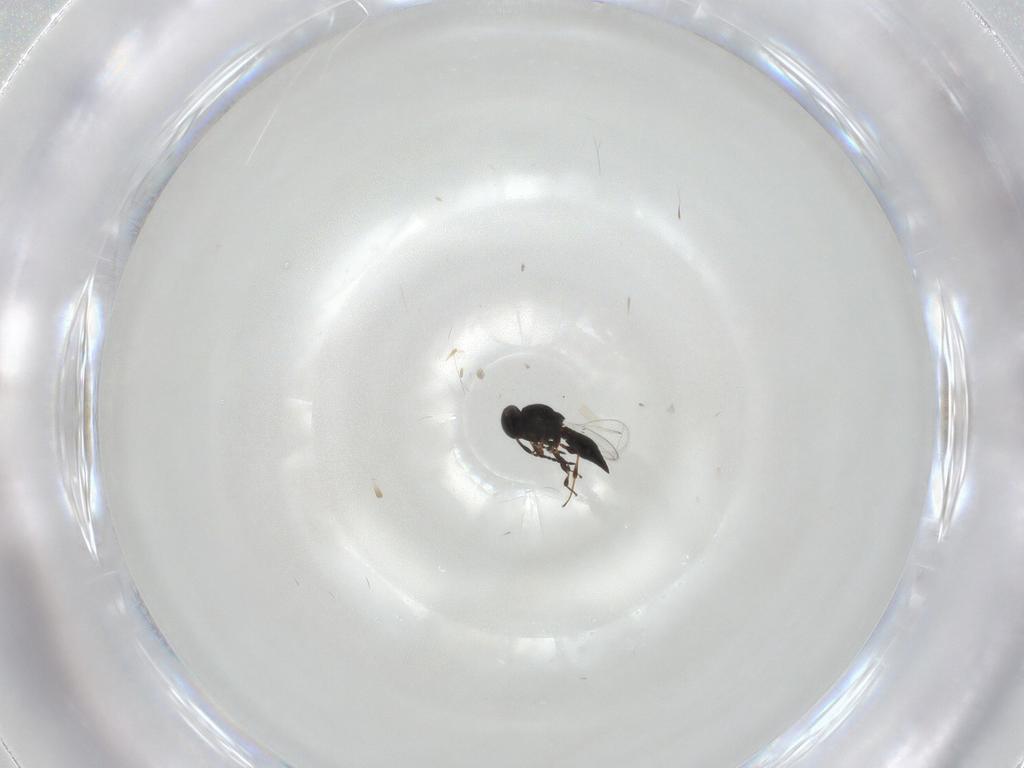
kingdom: Animalia
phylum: Arthropoda
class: Insecta
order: Hymenoptera
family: Platygastridae
